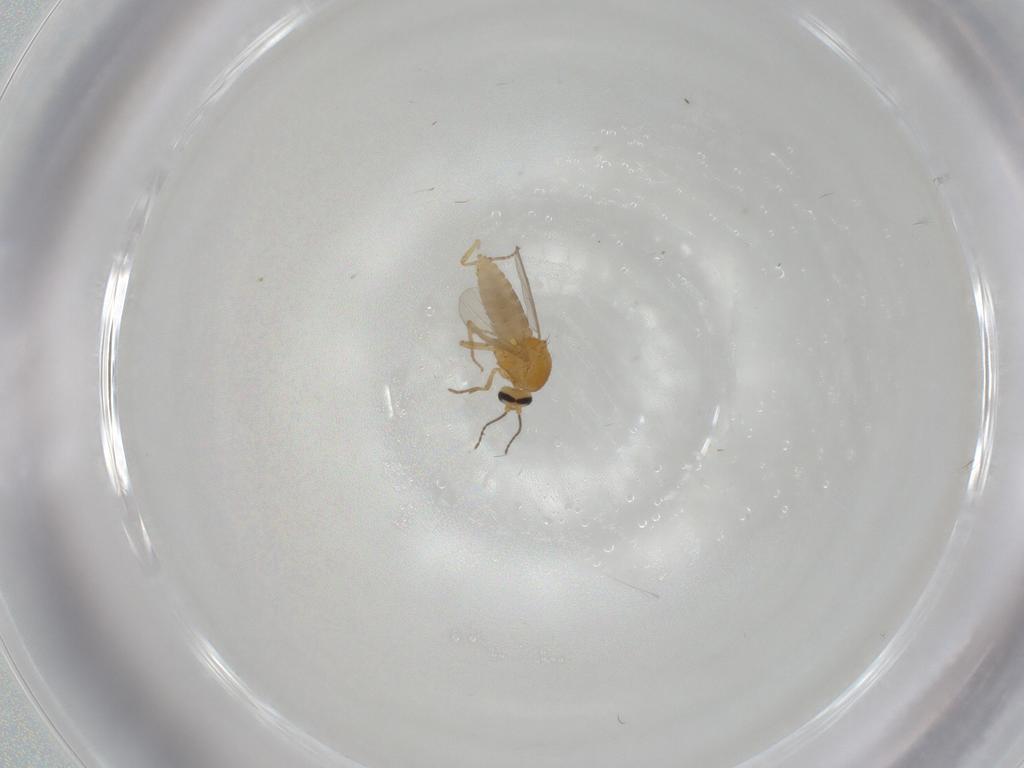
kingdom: Animalia
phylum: Arthropoda
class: Insecta
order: Diptera
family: Ceratopogonidae
